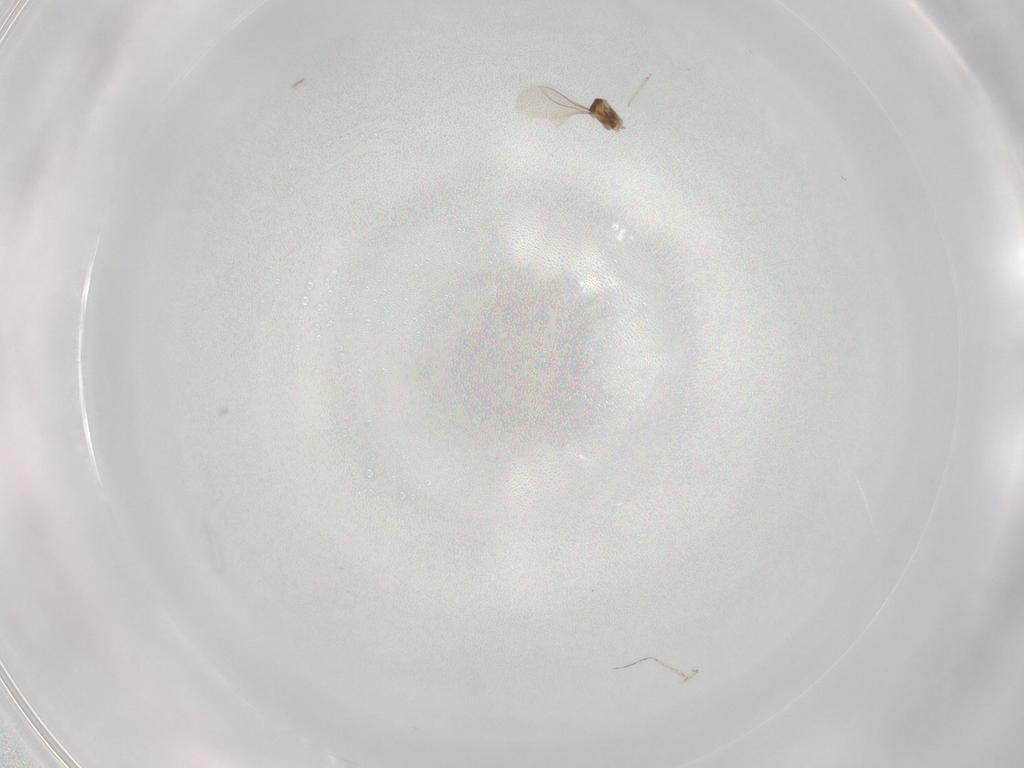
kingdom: Animalia
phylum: Arthropoda
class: Insecta
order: Diptera
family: Cecidomyiidae
